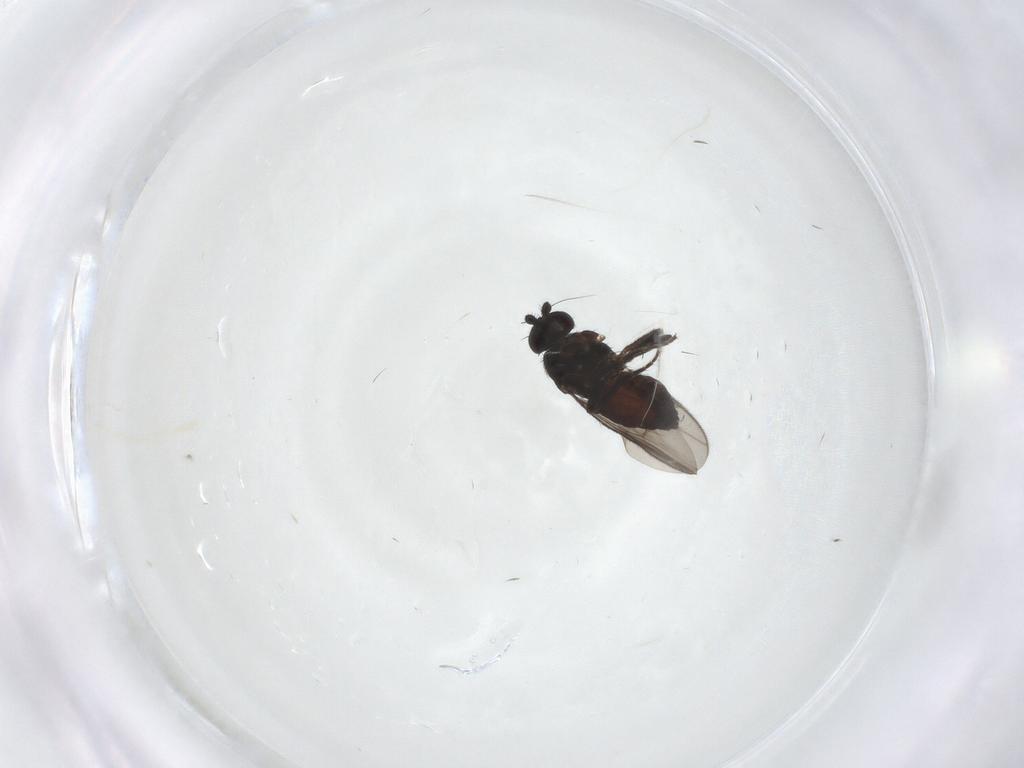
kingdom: Animalia
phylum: Arthropoda
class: Insecta
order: Diptera
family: Sphaeroceridae
